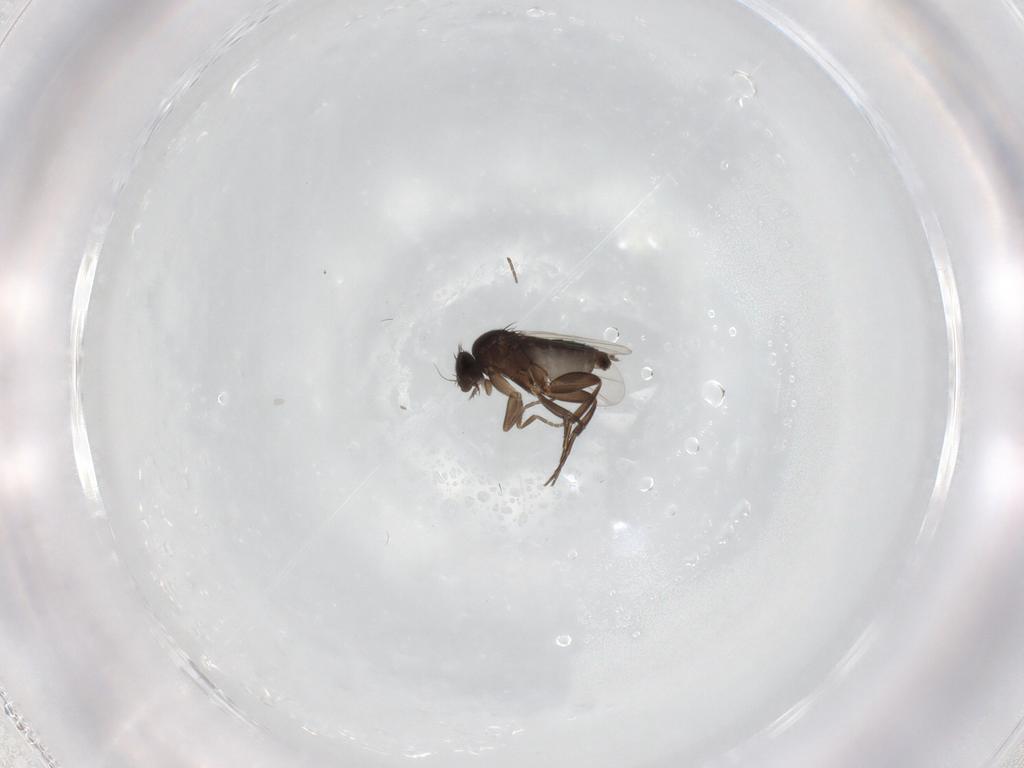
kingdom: Animalia
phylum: Arthropoda
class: Insecta
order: Diptera
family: Phoridae
